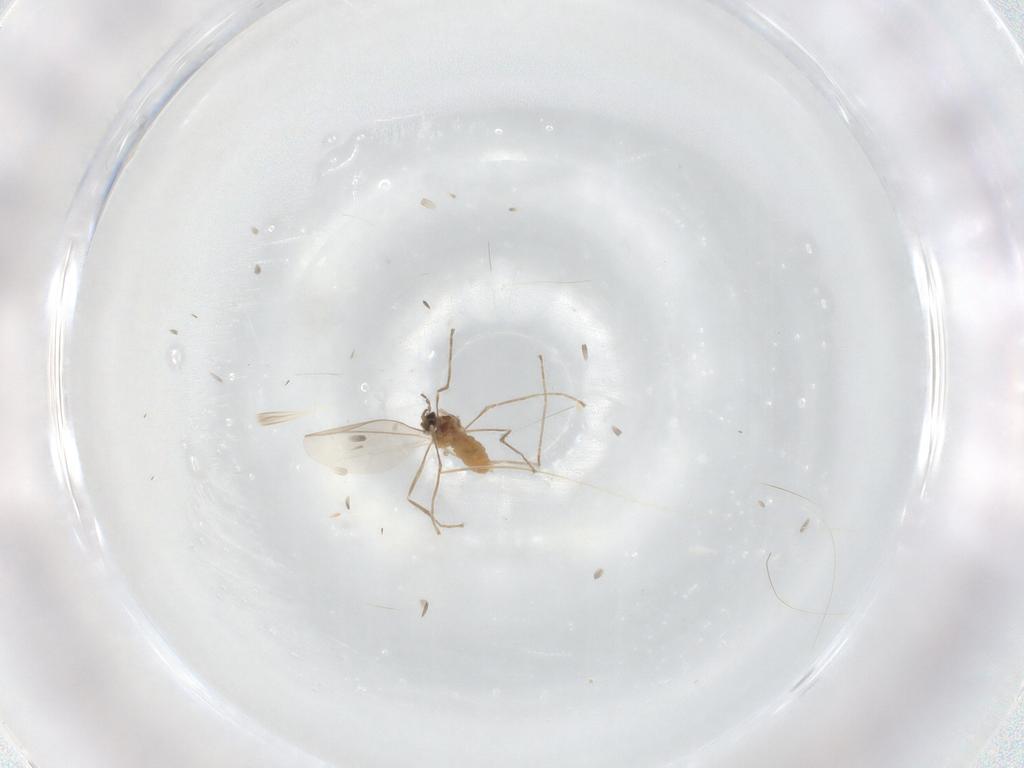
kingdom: Animalia
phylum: Arthropoda
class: Insecta
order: Diptera
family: Cecidomyiidae
